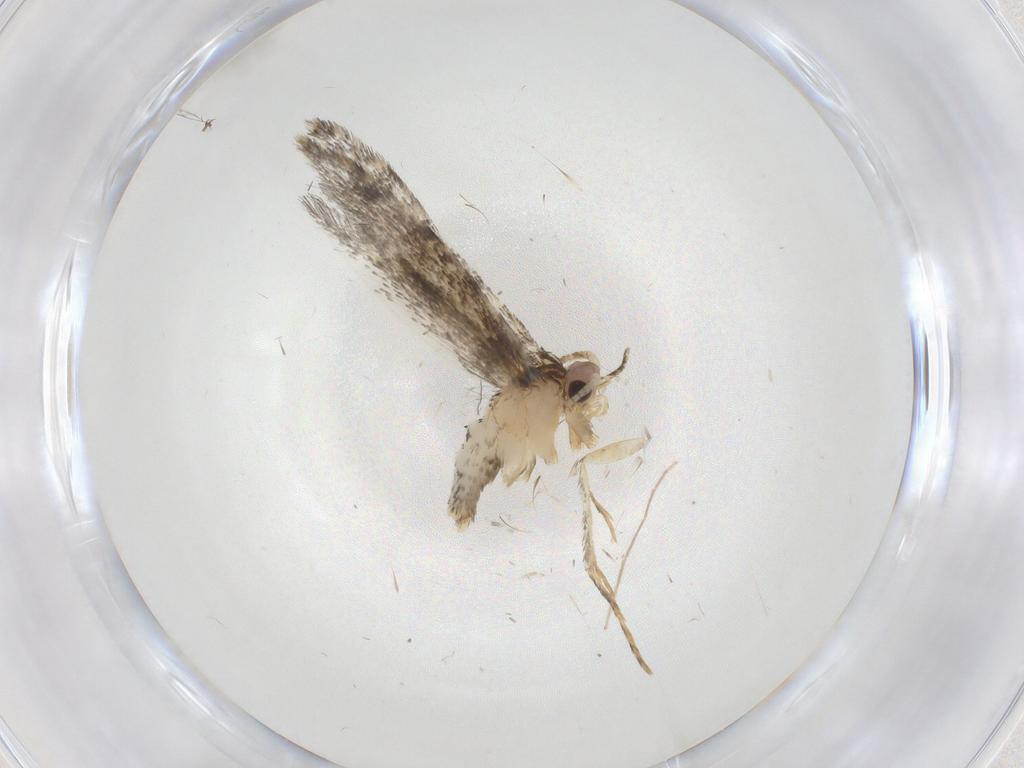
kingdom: Animalia
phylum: Arthropoda
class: Insecta
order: Lepidoptera
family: Tineidae
